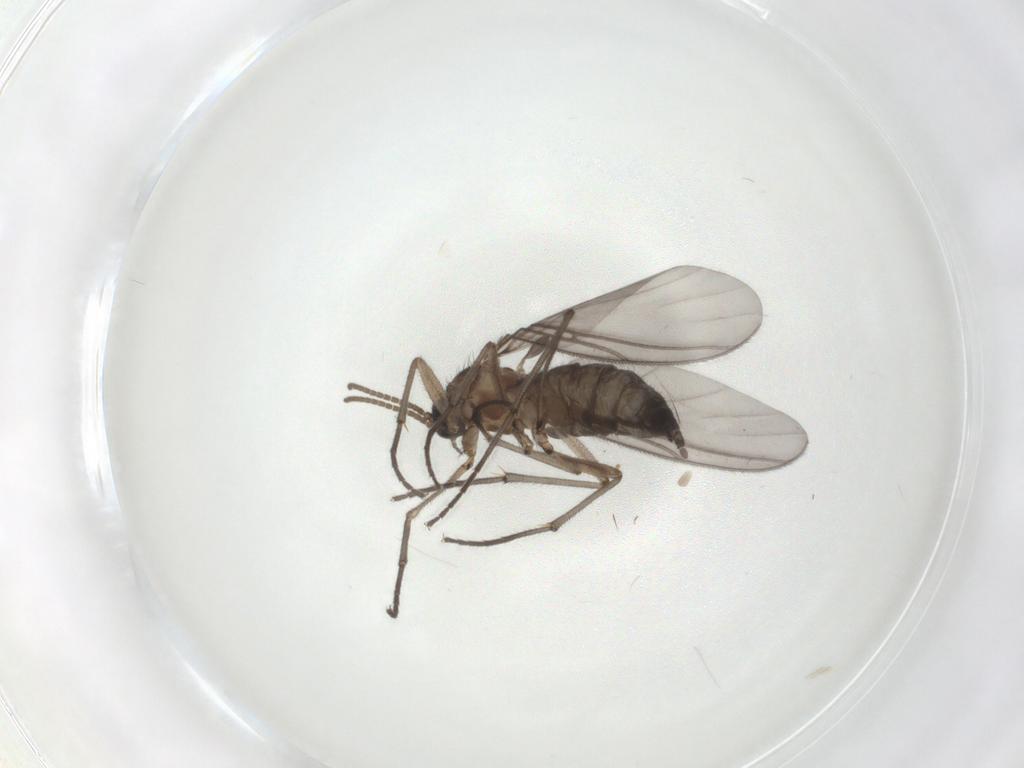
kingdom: Animalia
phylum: Arthropoda
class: Insecta
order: Diptera
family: Psychodidae
